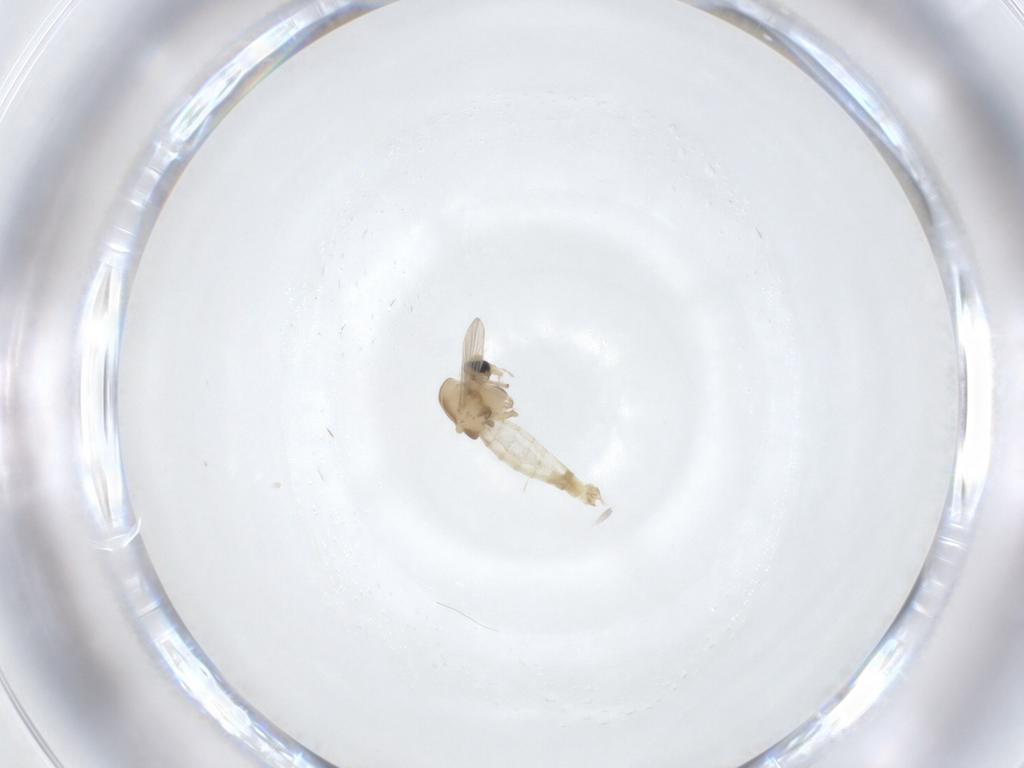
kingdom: Animalia
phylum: Arthropoda
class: Insecta
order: Diptera
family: Chironomidae
